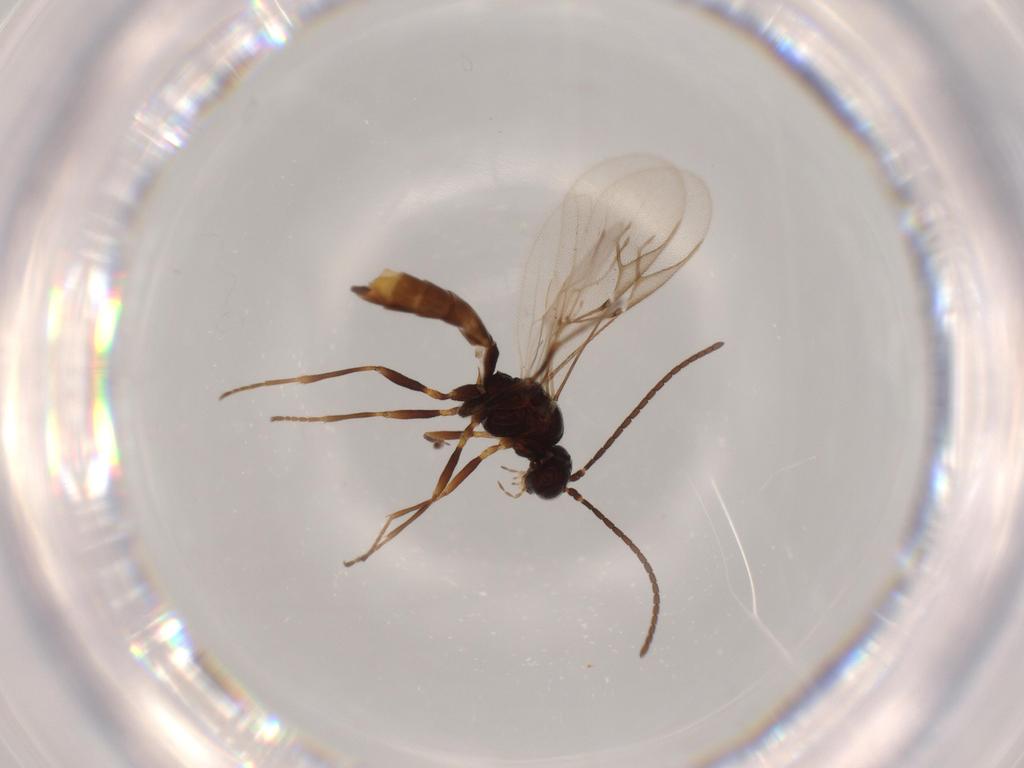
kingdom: Animalia
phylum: Arthropoda
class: Insecta
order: Hymenoptera
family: Braconidae
